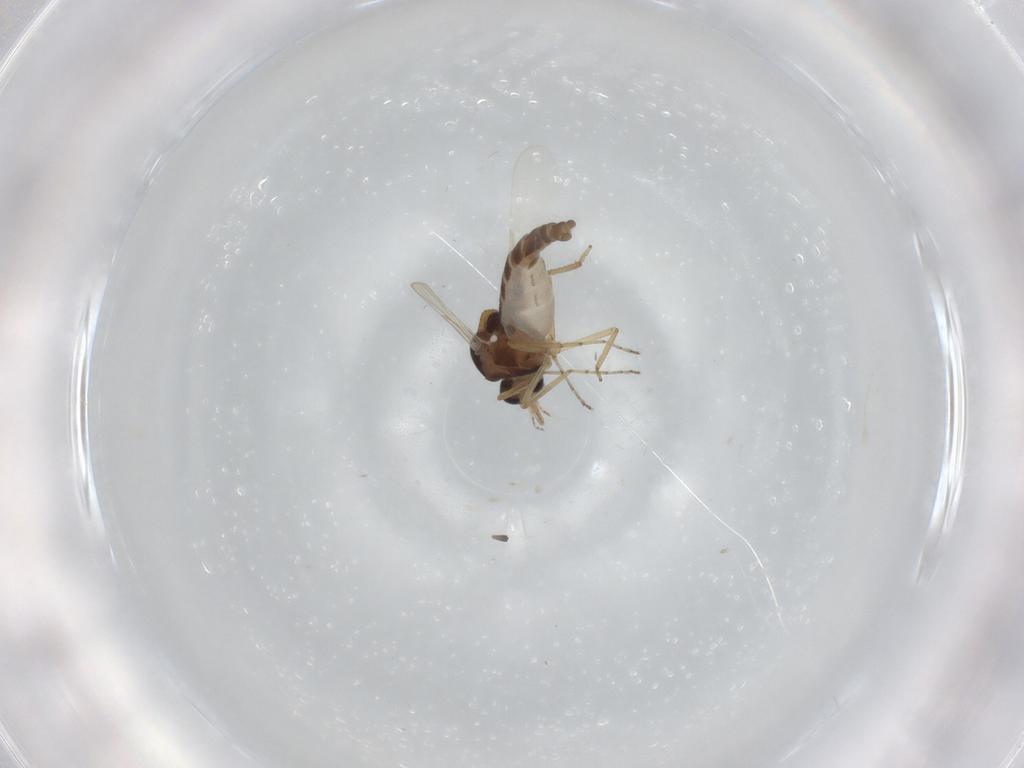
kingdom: Animalia
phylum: Arthropoda
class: Insecta
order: Diptera
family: Ceratopogonidae
